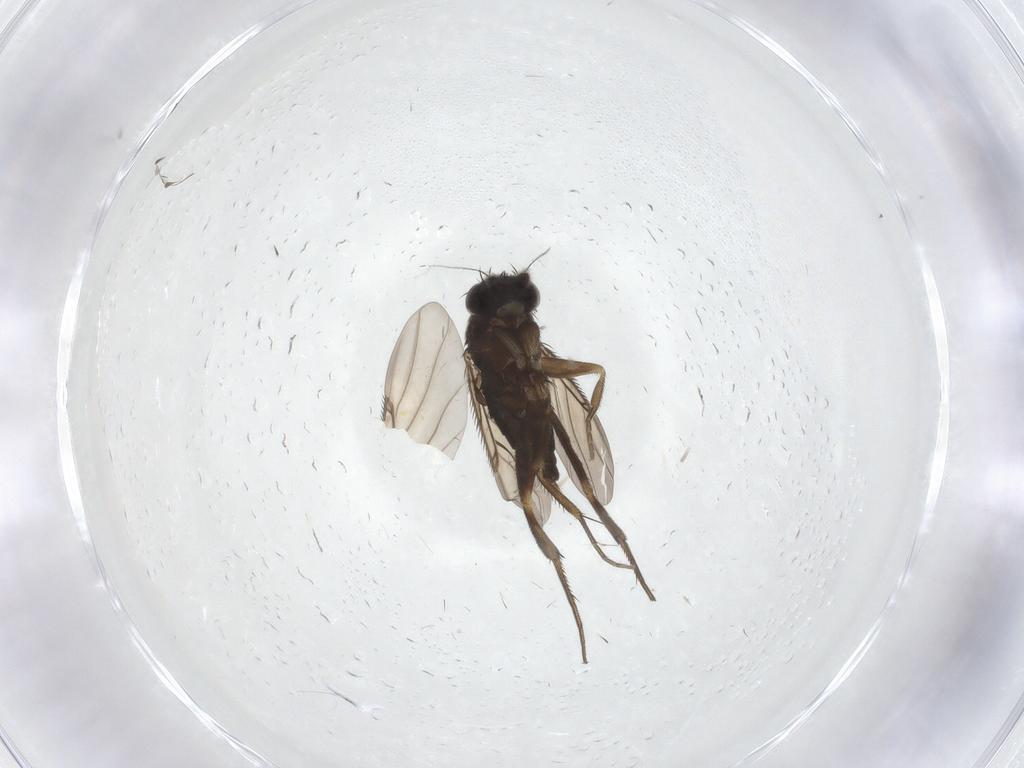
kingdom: Animalia
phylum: Arthropoda
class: Insecta
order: Diptera
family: Phoridae
